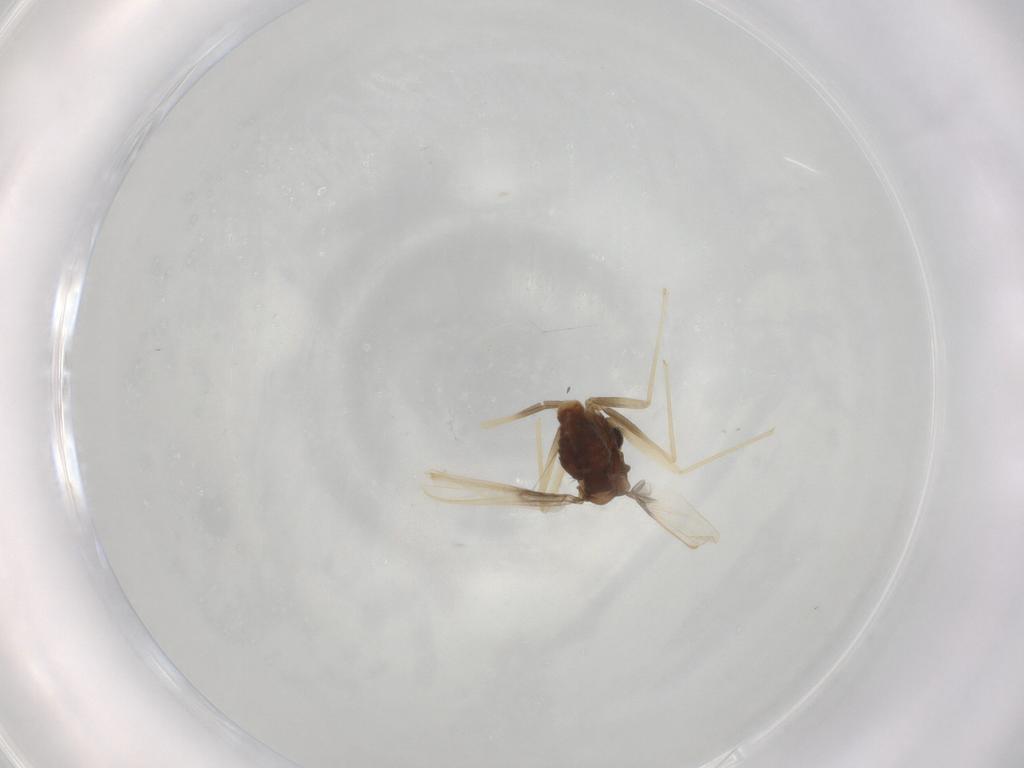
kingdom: Animalia
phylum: Arthropoda
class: Insecta
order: Diptera
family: Chironomidae
